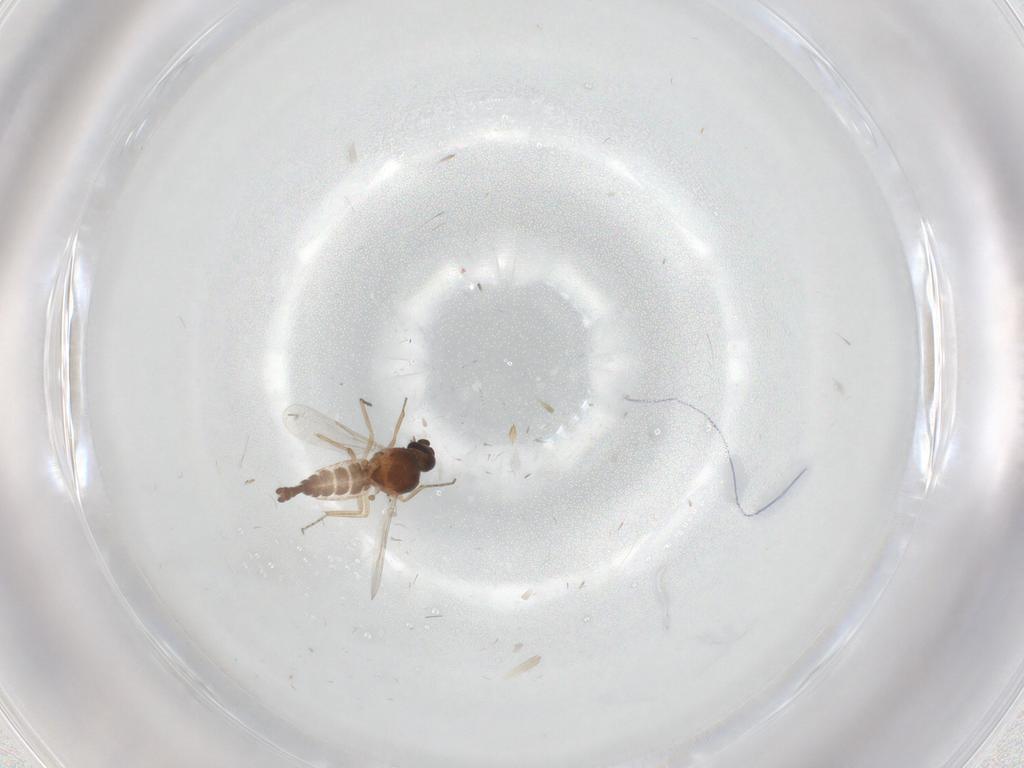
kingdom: Animalia
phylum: Arthropoda
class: Insecta
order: Diptera
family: Ceratopogonidae
